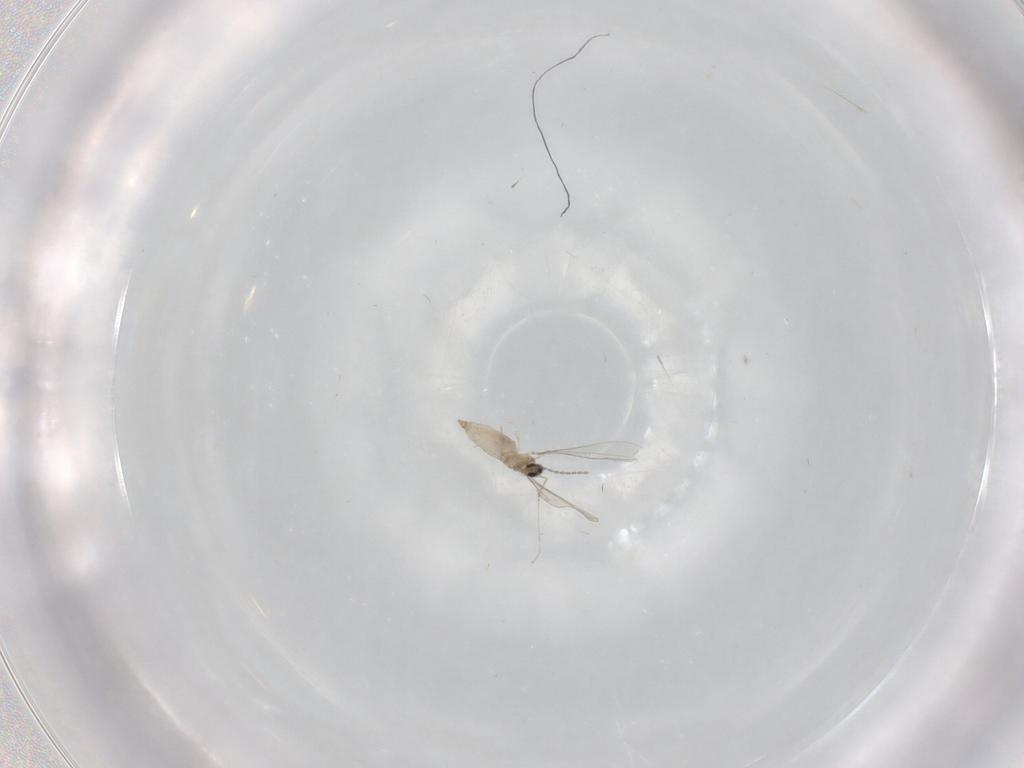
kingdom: Animalia
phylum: Arthropoda
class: Insecta
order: Diptera
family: Cecidomyiidae
